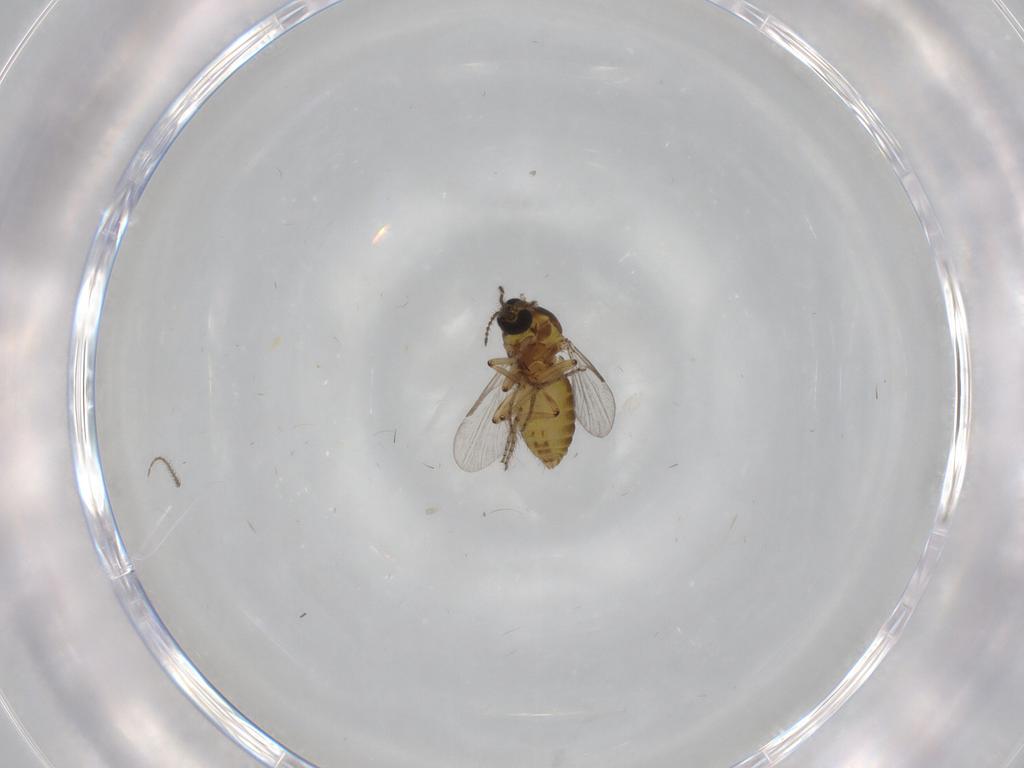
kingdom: Animalia
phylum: Arthropoda
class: Insecta
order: Diptera
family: Ceratopogonidae
